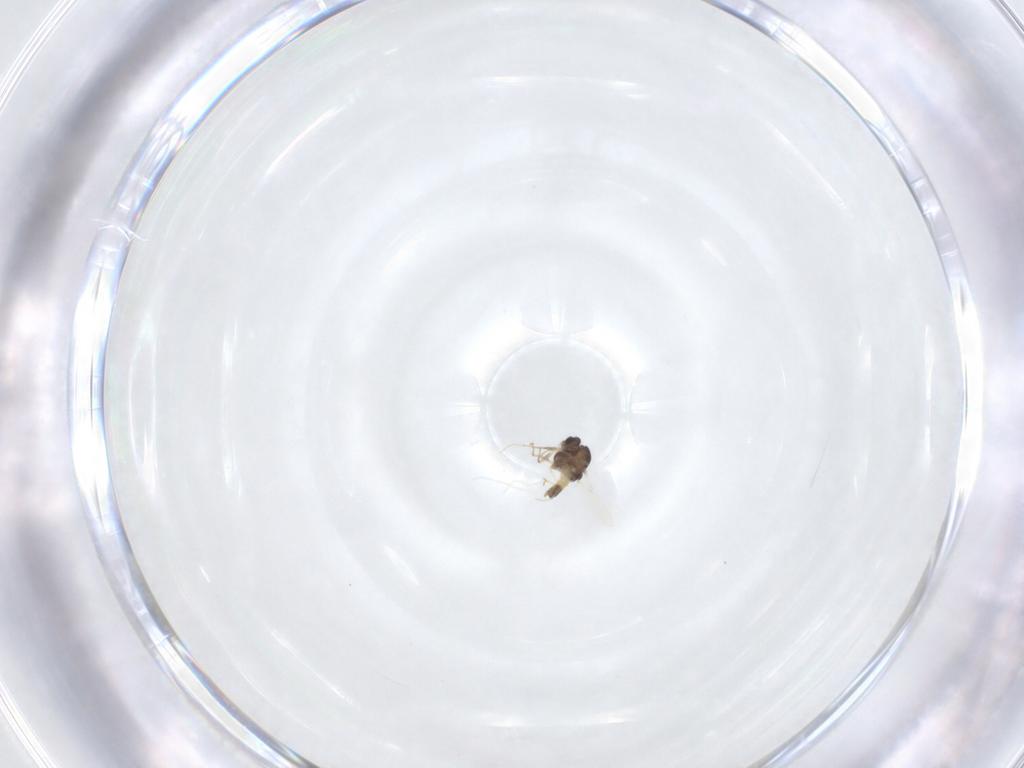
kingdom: Animalia
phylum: Arthropoda
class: Insecta
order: Diptera
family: Chironomidae
